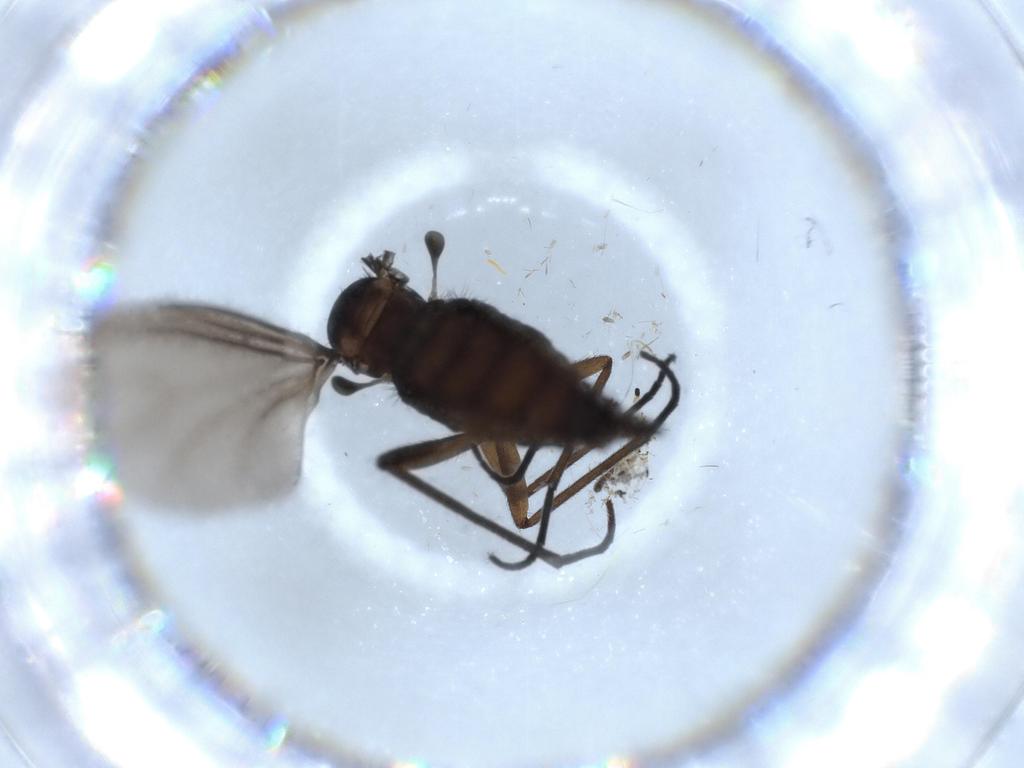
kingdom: Animalia
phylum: Arthropoda
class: Insecta
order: Diptera
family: Sciaridae
